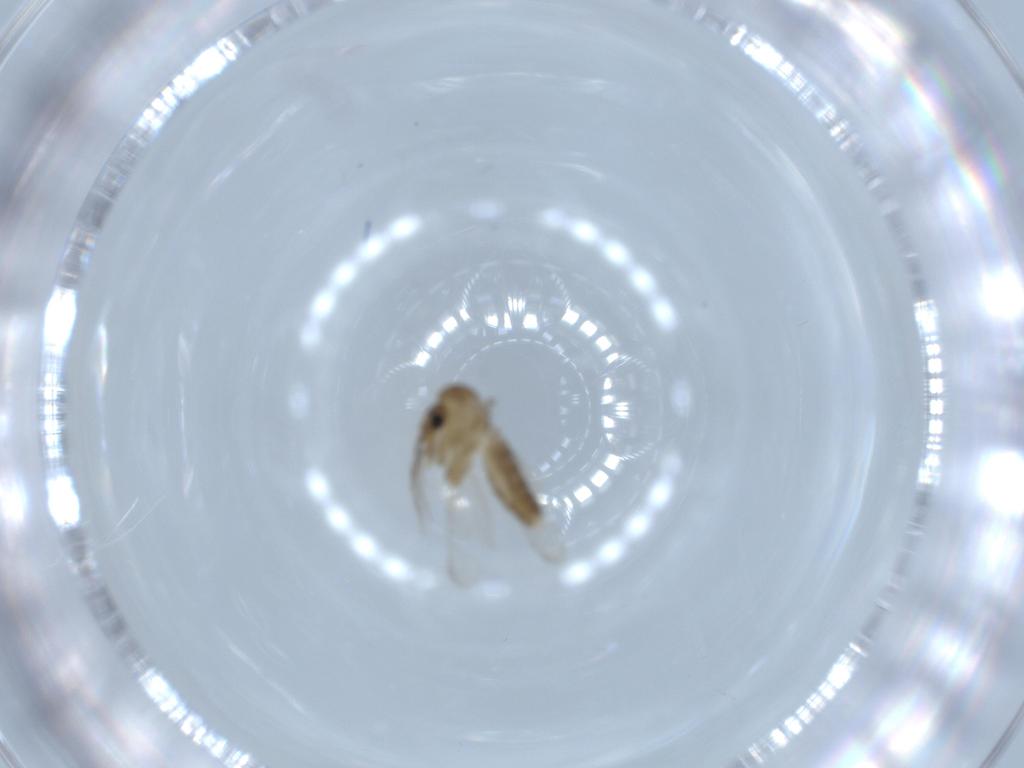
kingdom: Animalia
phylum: Arthropoda
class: Insecta
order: Diptera
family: Psychodidae
